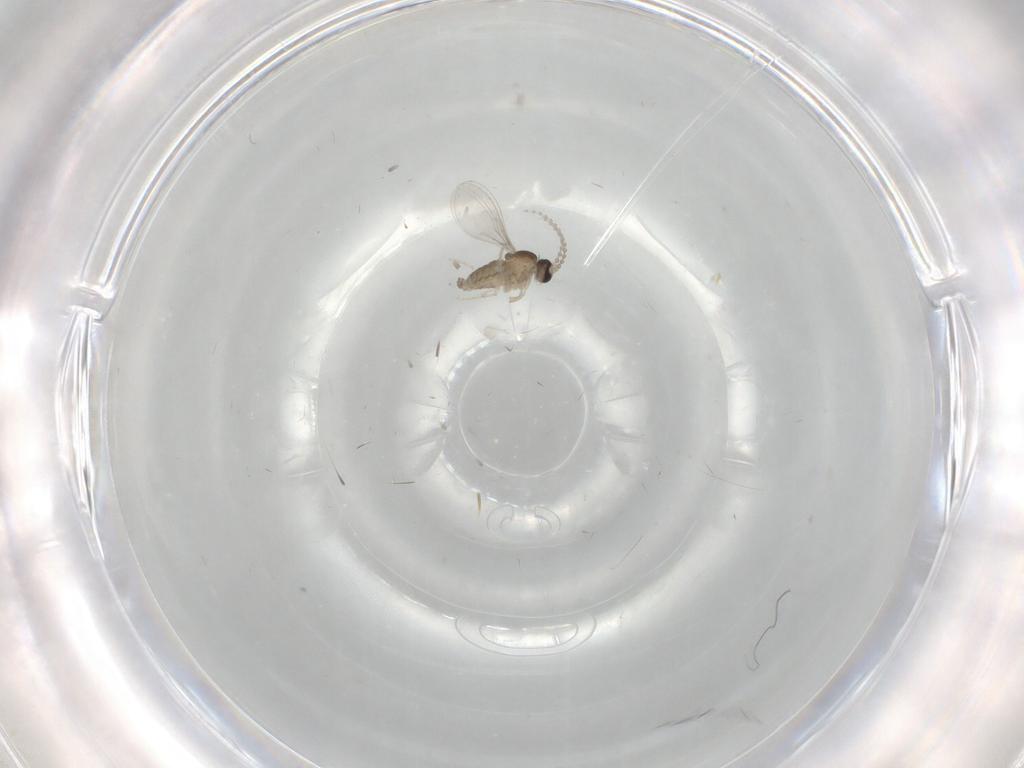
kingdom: Animalia
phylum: Arthropoda
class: Insecta
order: Diptera
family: Cecidomyiidae
